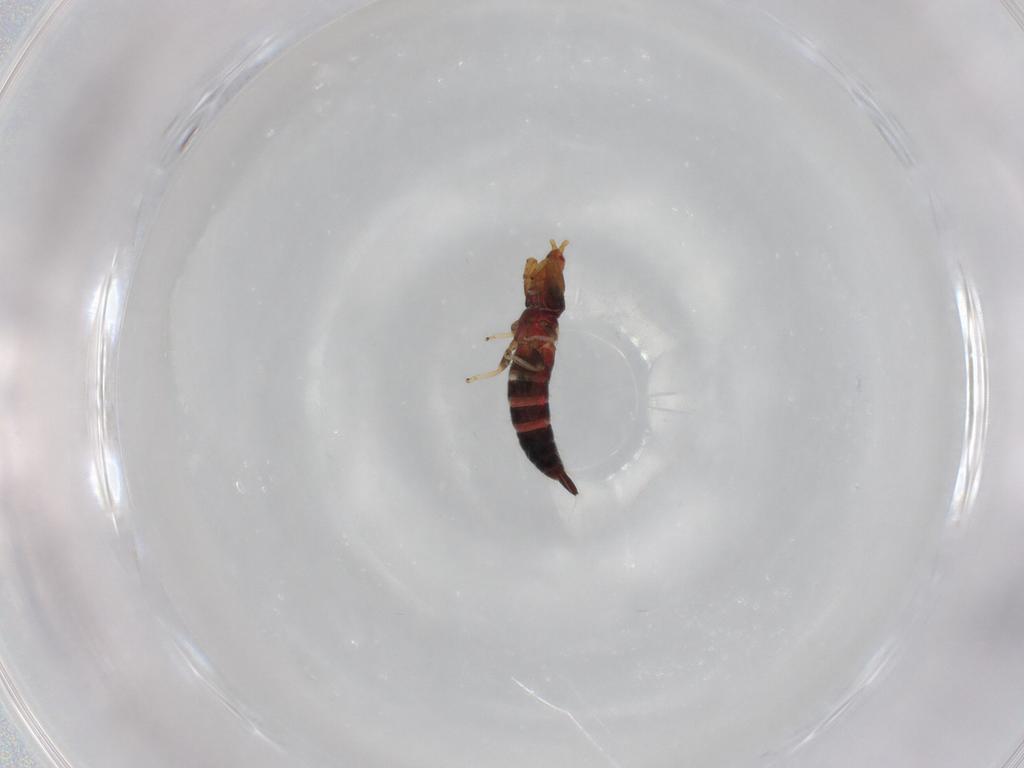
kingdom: Animalia
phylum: Arthropoda
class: Insecta
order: Thysanoptera
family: Phlaeothripidae
